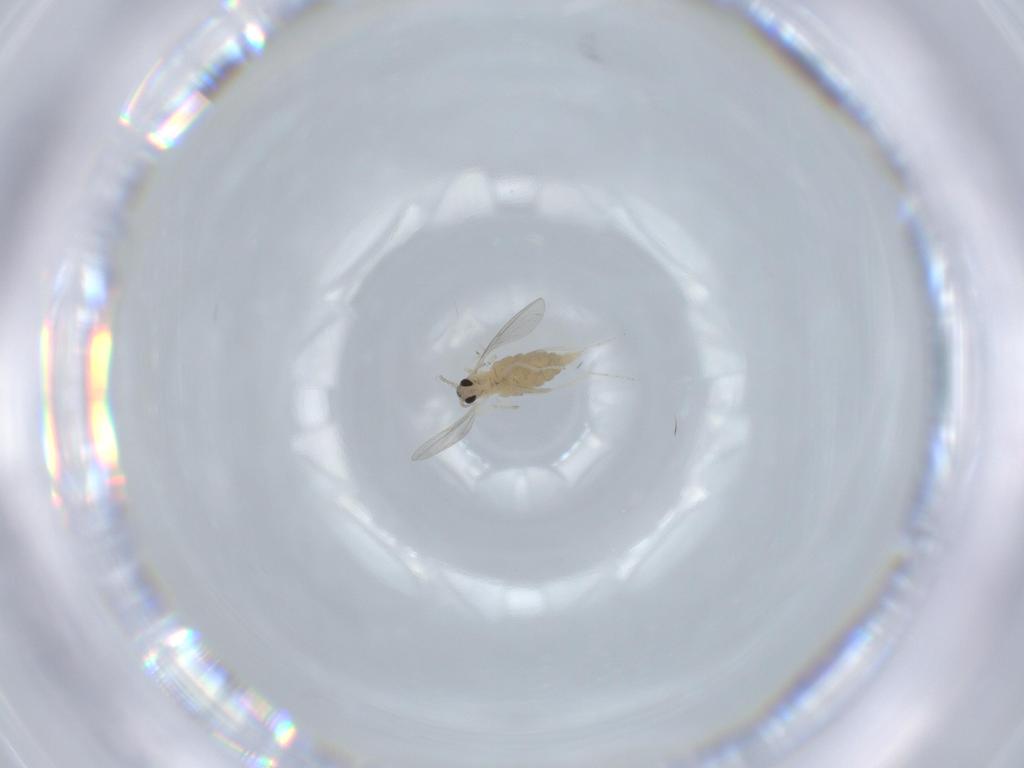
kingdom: Animalia
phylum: Arthropoda
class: Insecta
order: Diptera
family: Cecidomyiidae
